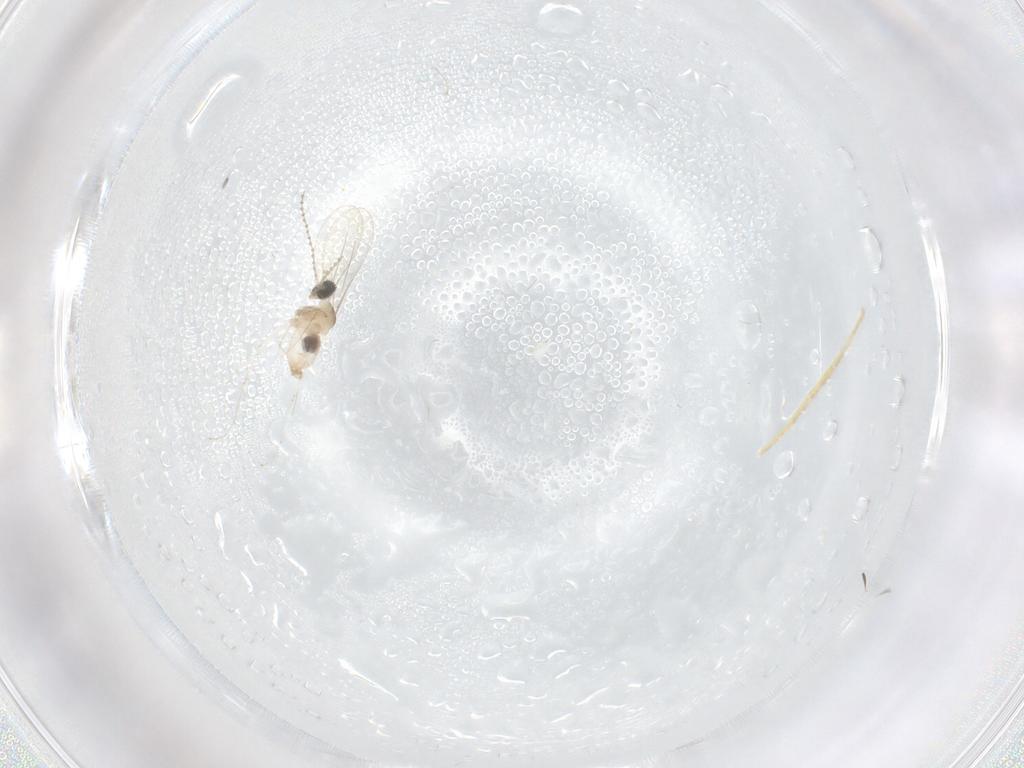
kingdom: Animalia
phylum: Arthropoda
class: Insecta
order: Diptera
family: Cecidomyiidae
